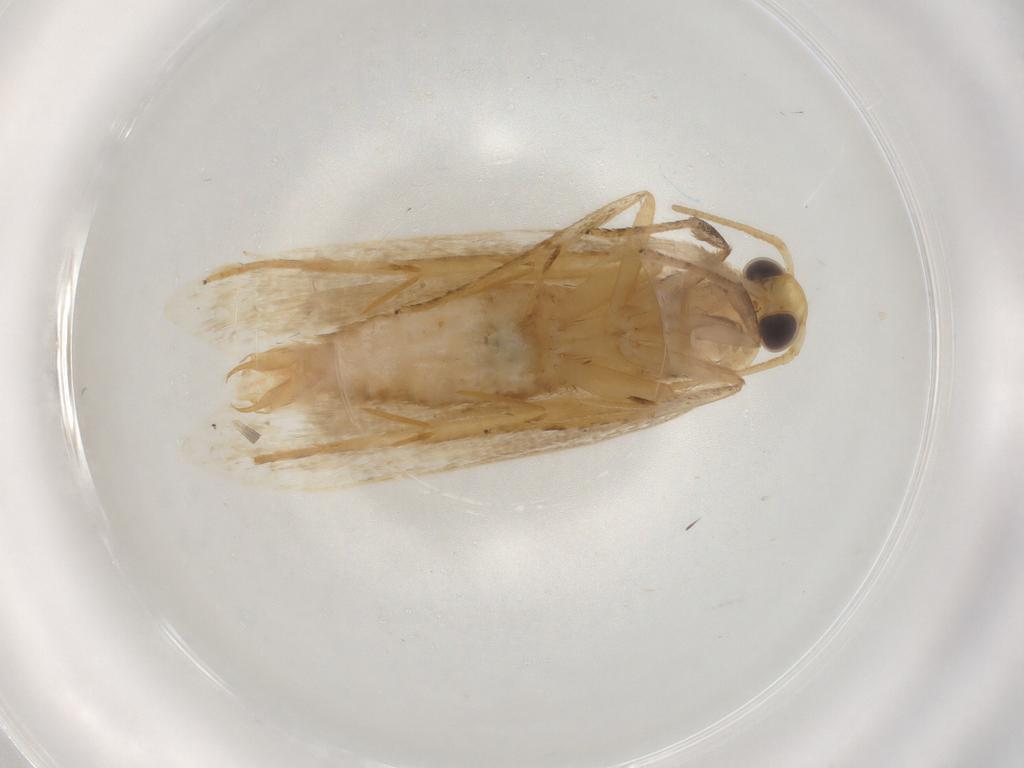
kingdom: Animalia
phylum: Arthropoda
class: Insecta
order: Lepidoptera
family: Depressariidae
